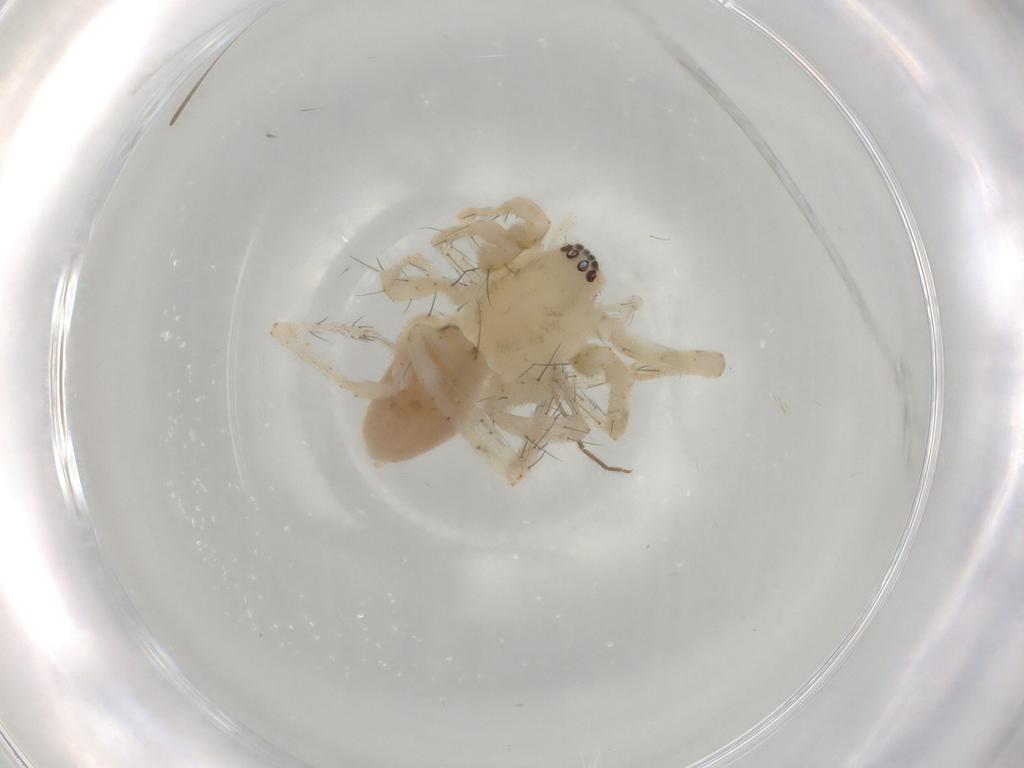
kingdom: Animalia
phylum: Arthropoda
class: Arachnida
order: Araneae
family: Anyphaenidae
